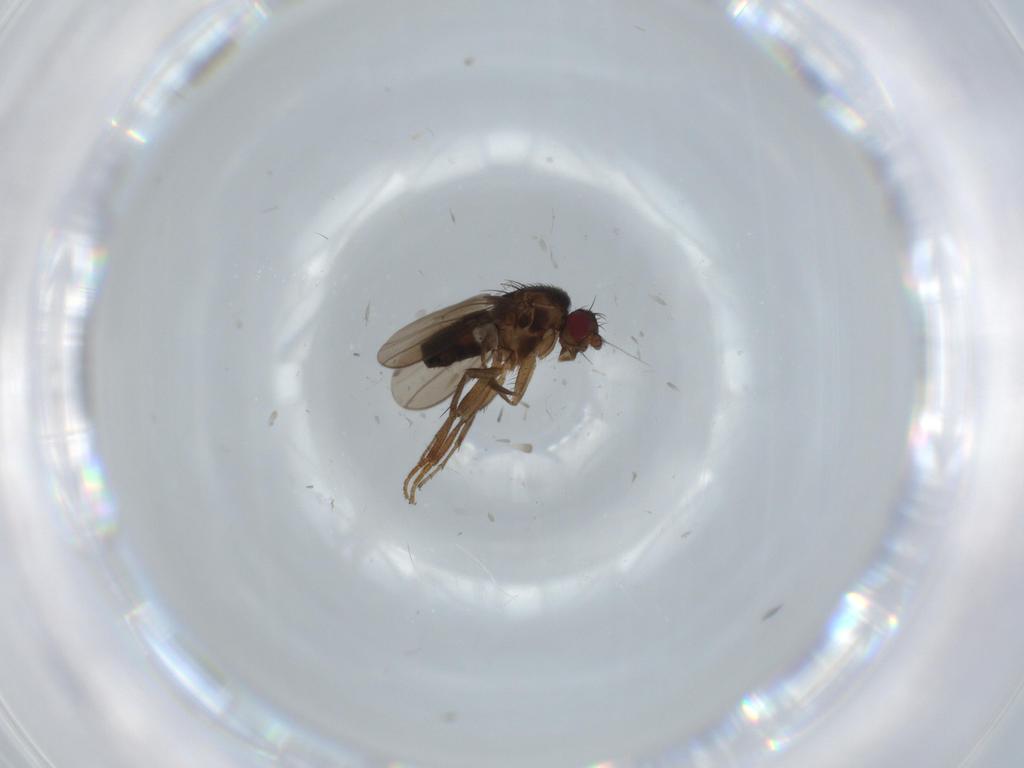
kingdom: Animalia
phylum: Arthropoda
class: Insecta
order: Diptera
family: Sphaeroceridae
